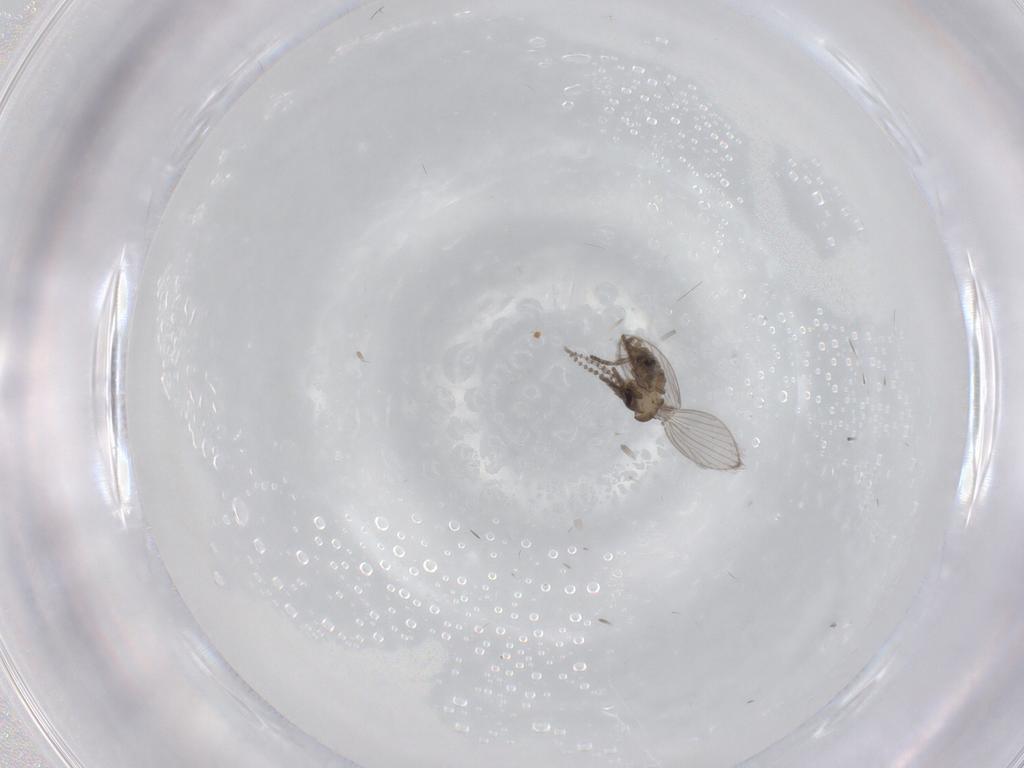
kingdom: Animalia
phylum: Arthropoda
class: Insecta
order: Diptera
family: Psychodidae
